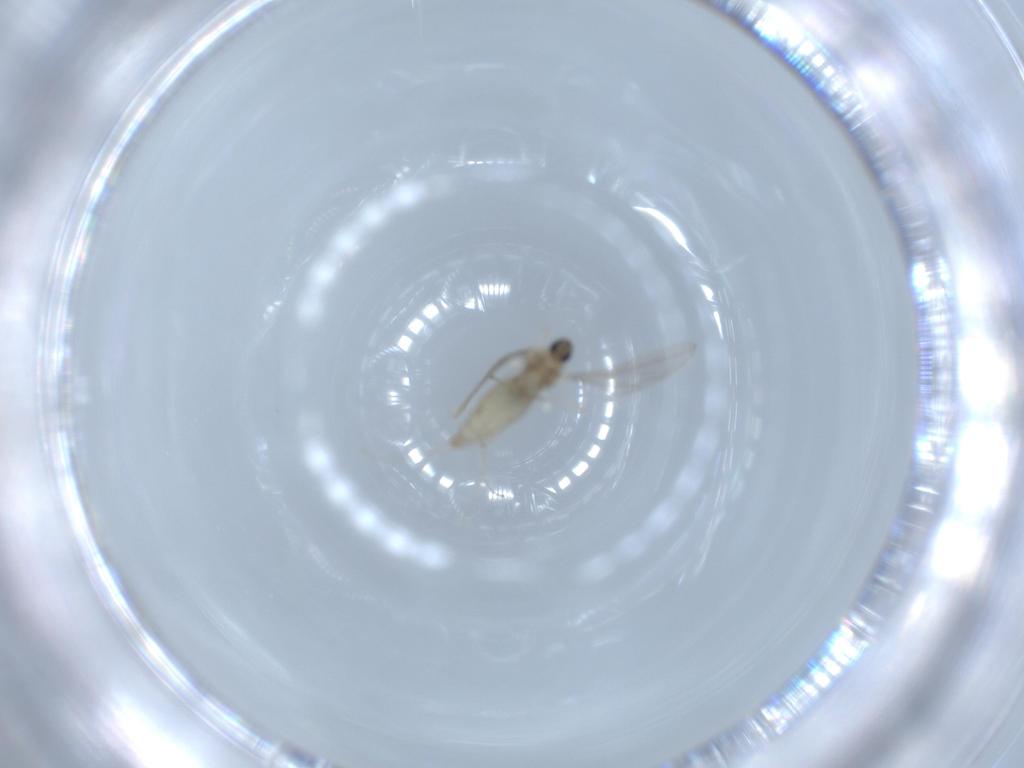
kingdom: Animalia
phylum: Arthropoda
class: Insecta
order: Diptera
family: Cecidomyiidae
